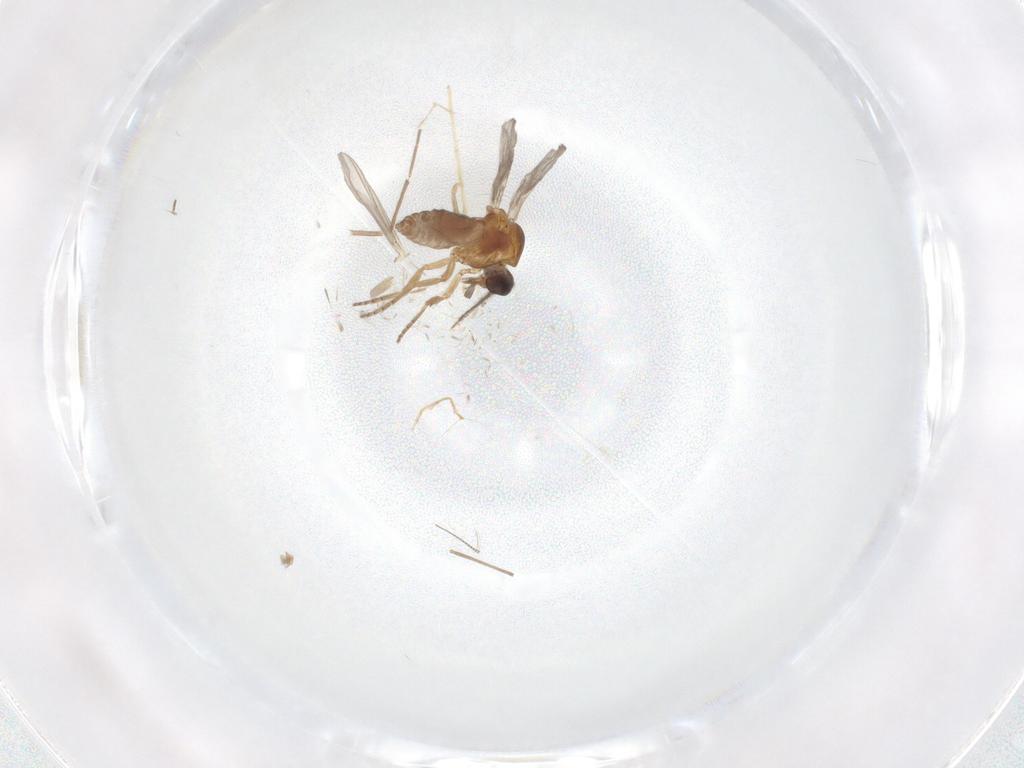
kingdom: Animalia
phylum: Arthropoda
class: Insecta
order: Diptera
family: Chironomidae
